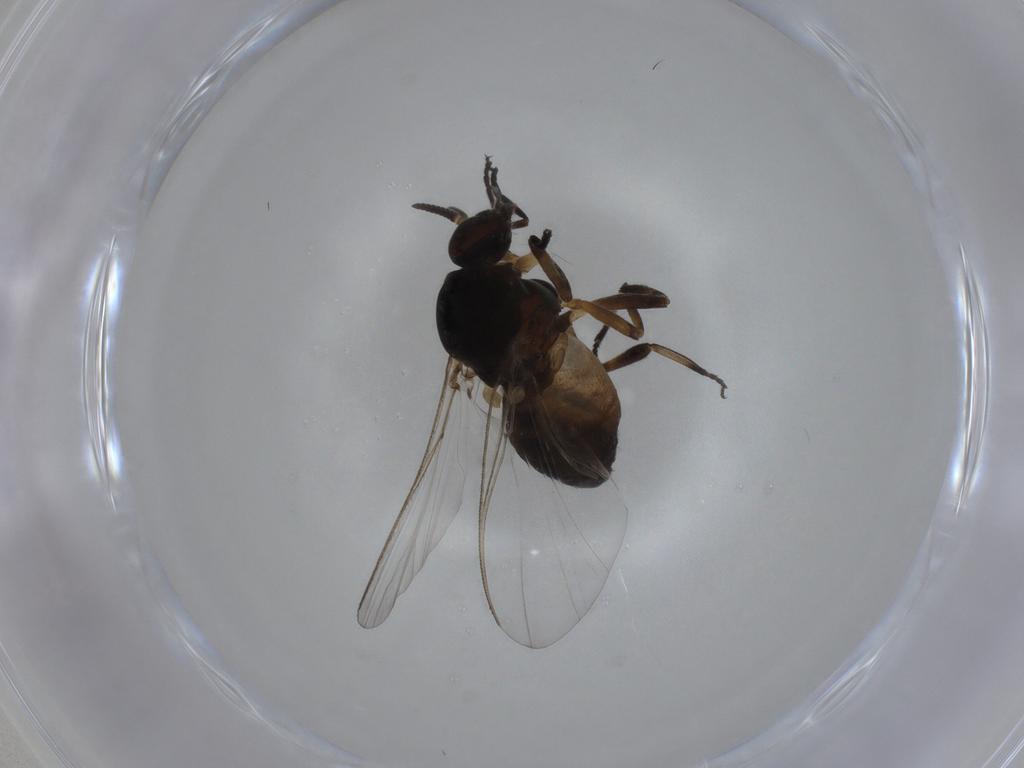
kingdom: Animalia
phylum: Arthropoda
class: Insecta
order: Diptera
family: Simuliidae
